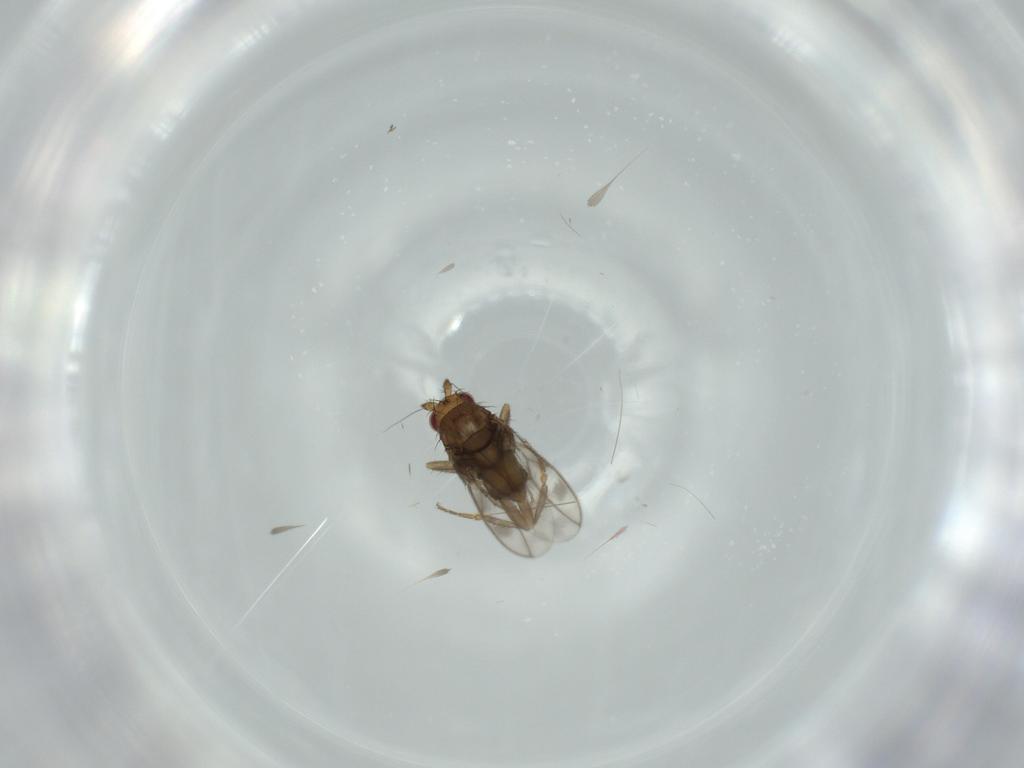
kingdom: Animalia
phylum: Arthropoda
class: Insecta
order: Diptera
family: Sphaeroceridae
